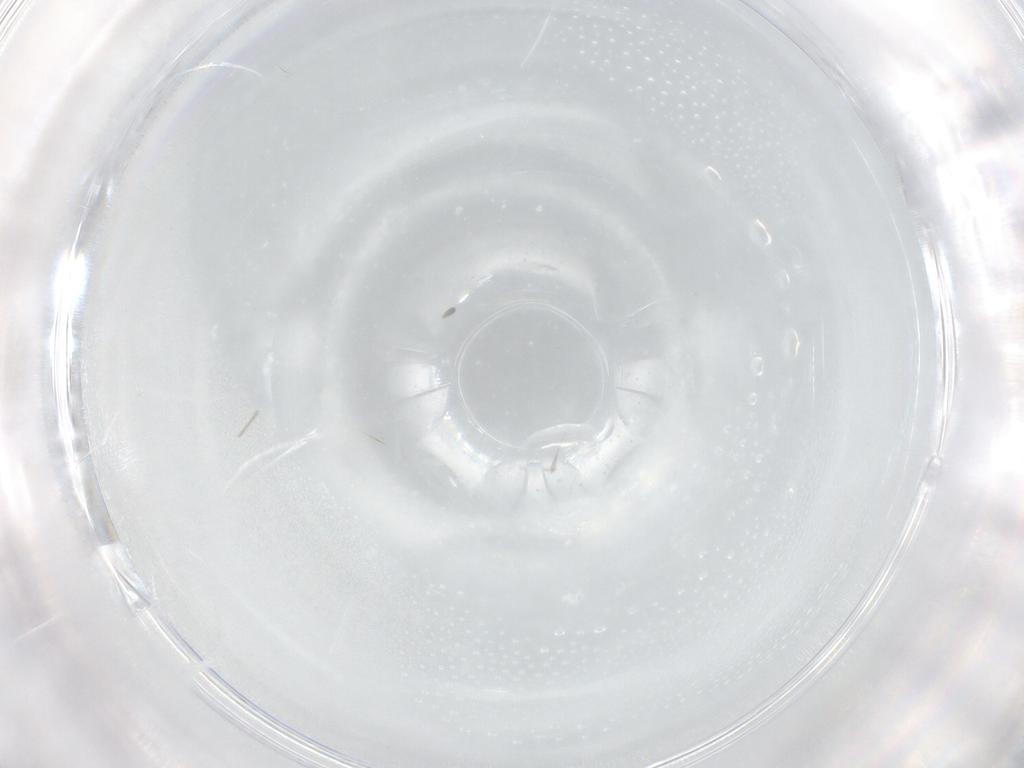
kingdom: Animalia
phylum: Arthropoda
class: Insecta
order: Diptera
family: Cecidomyiidae
